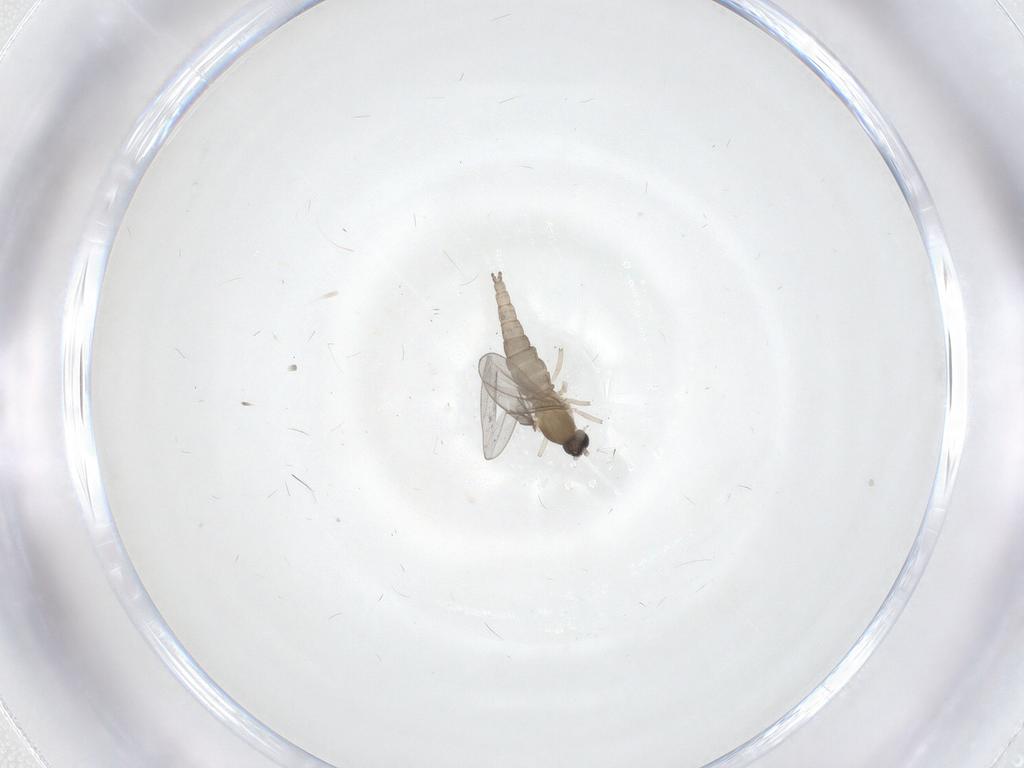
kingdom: Animalia
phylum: Arthropoda
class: Insecta
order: Diptera
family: Cecidomyiidae
